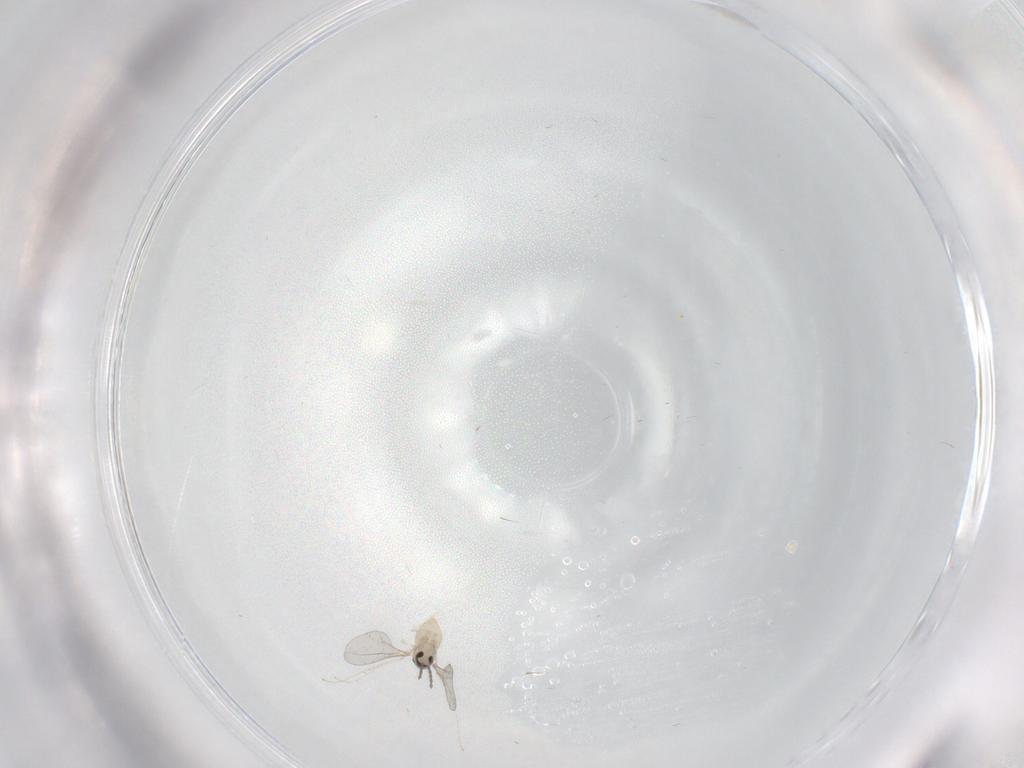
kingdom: Animalia
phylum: Arthropoda
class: Insecta
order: Diptera
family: Cecidomyiidae
